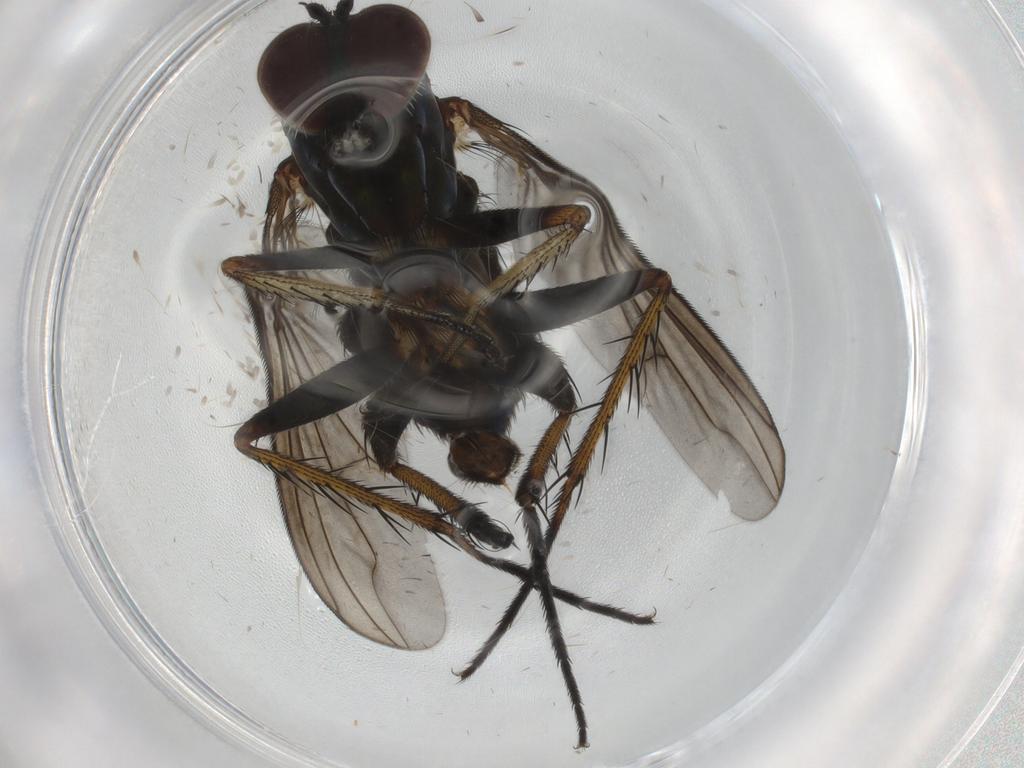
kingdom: Animalia
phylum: Arthropoda
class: Insecta
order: Diptera
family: Dolichopodidae
